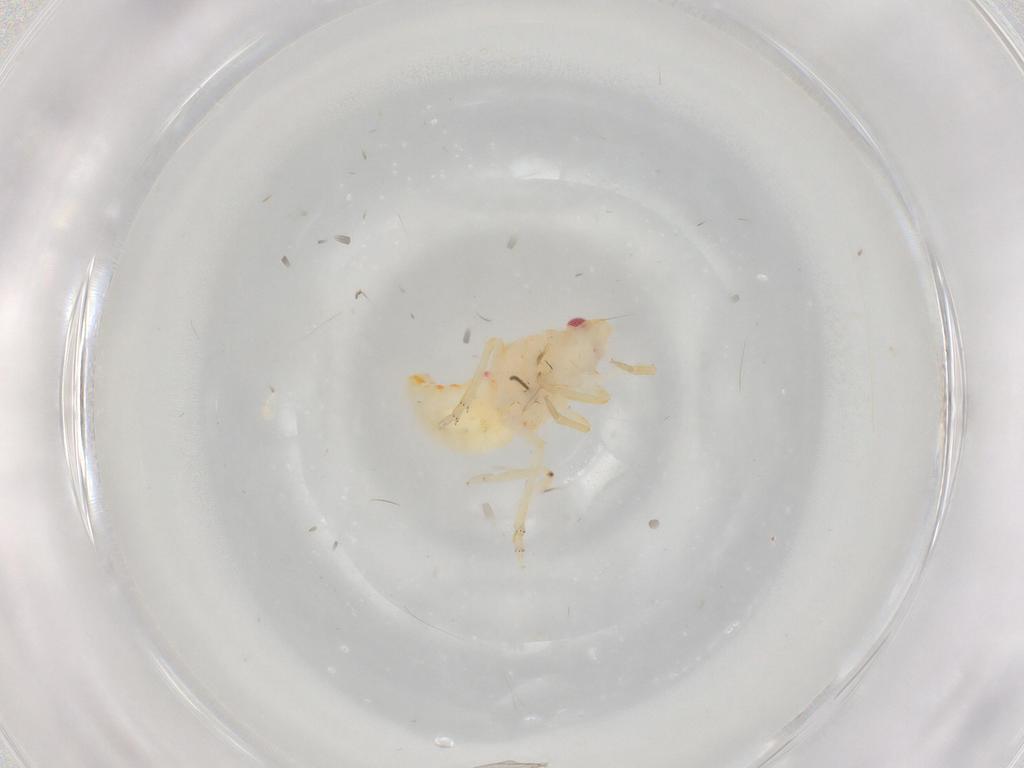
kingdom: Animalia
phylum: Arthropoda
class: Insecta
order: Hemiptera
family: Flatidae
